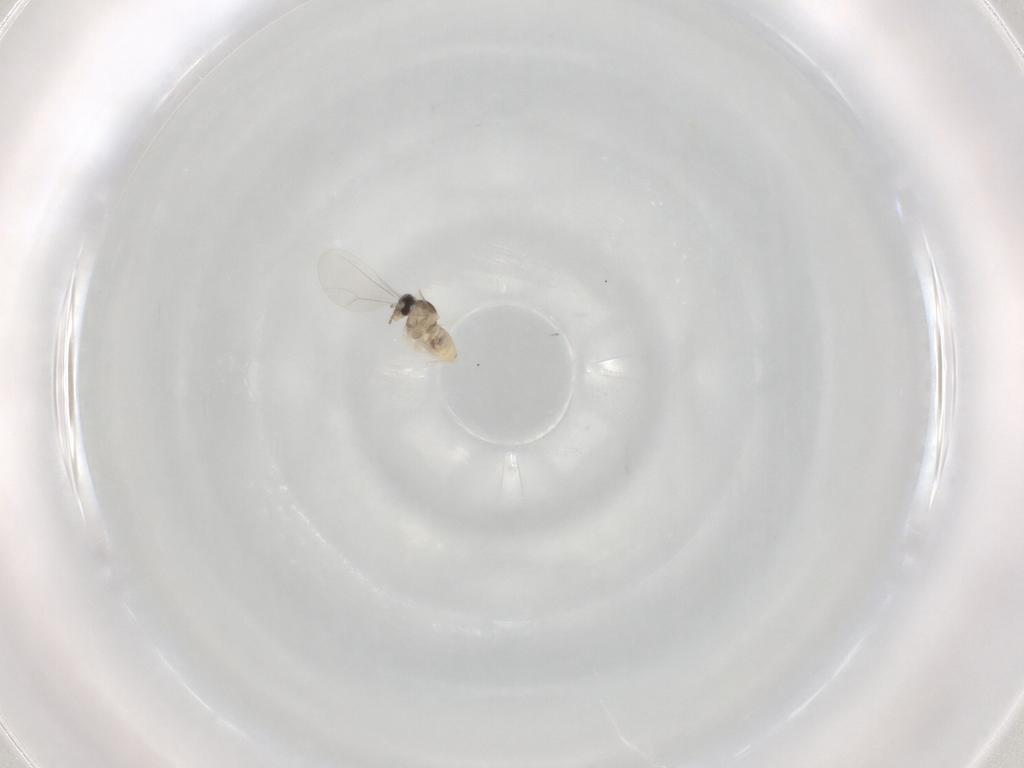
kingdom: Animalia
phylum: Arthropoda
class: Insecta
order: Diptera
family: Cecidomyiidae
